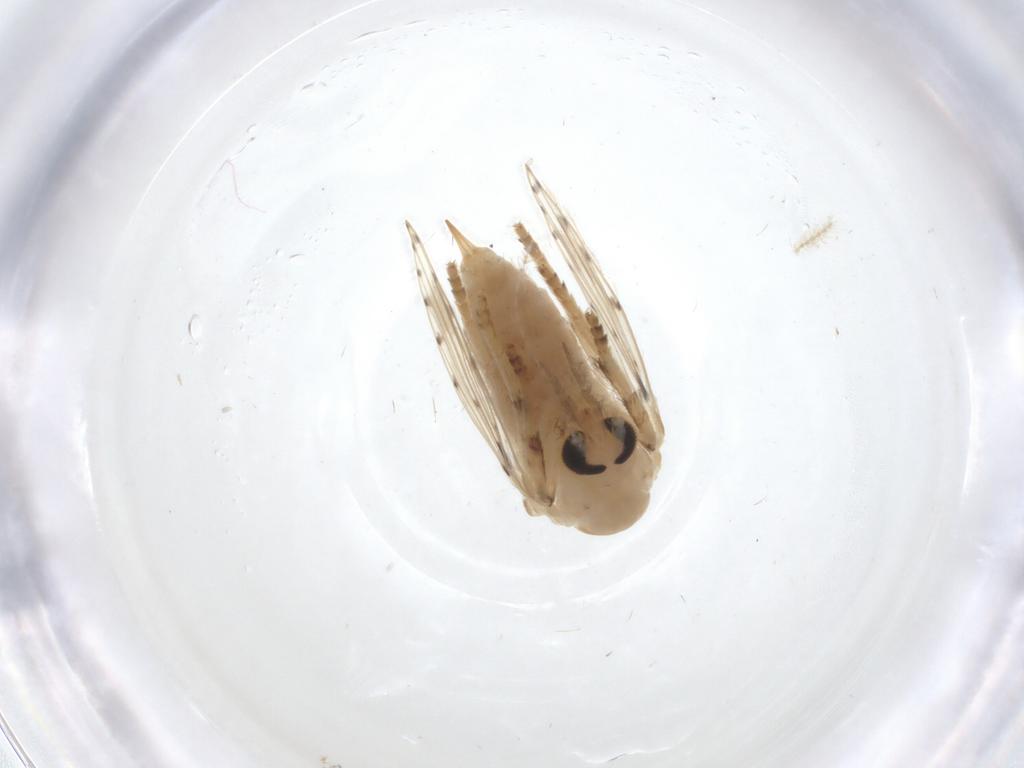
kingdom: Animalia
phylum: Arthropoda
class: Insecta
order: Diptera
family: Psychodidae
